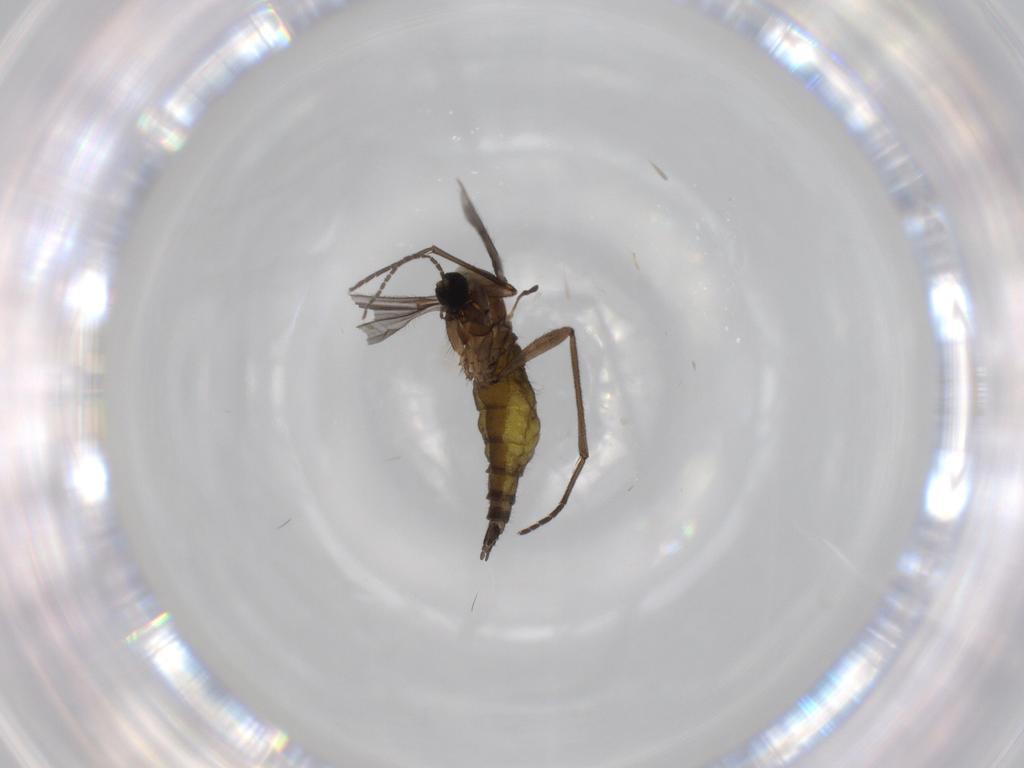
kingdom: Animalia
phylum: Arthropoda
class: Insecta
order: Diptera
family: Sciaridae
